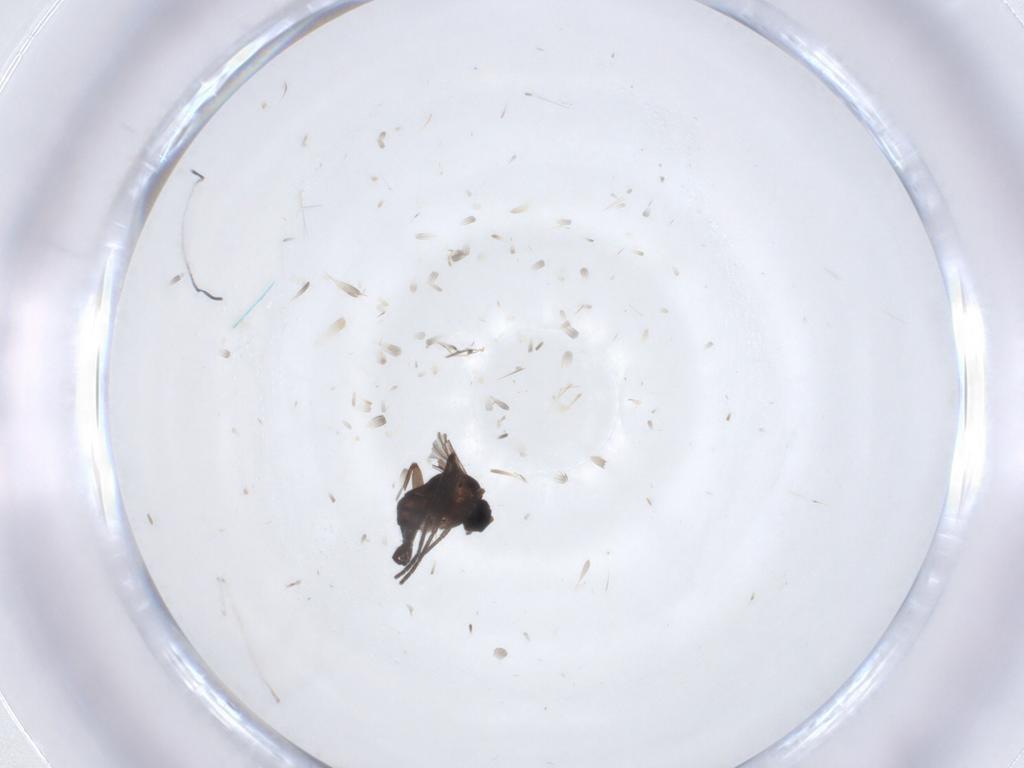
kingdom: Animalia
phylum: Arthropoda
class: Insecta
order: Diptera
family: Sciaridae
